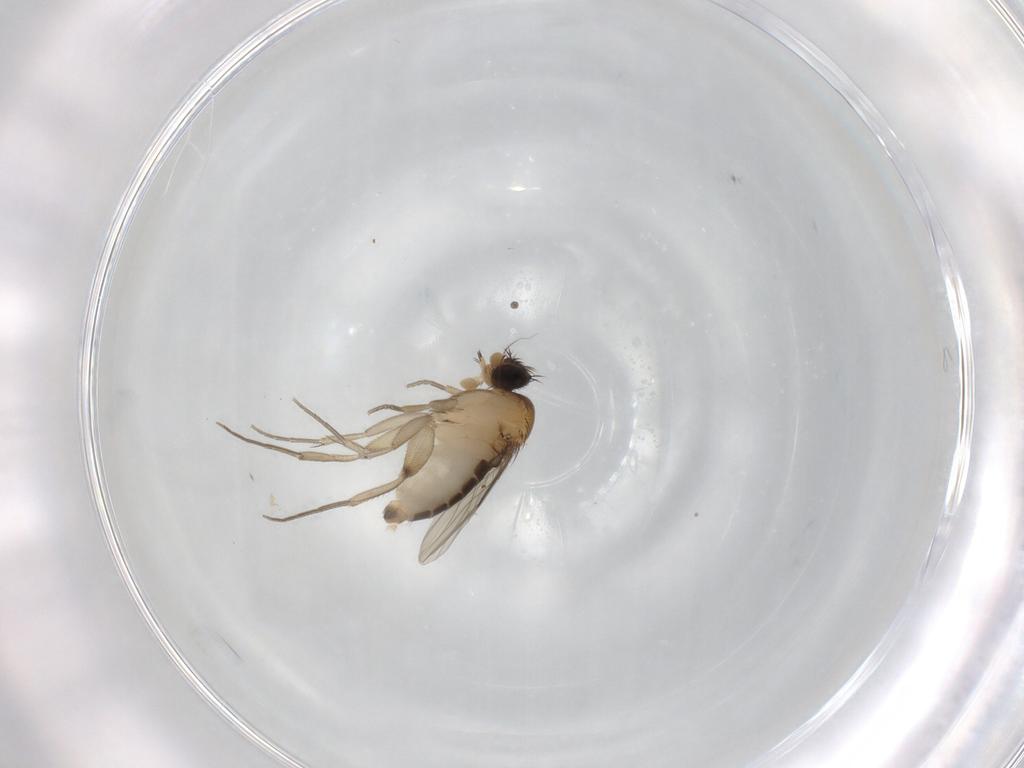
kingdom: Animalia
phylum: Arthropoda
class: Insecta
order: Diptera
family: Phoridae
